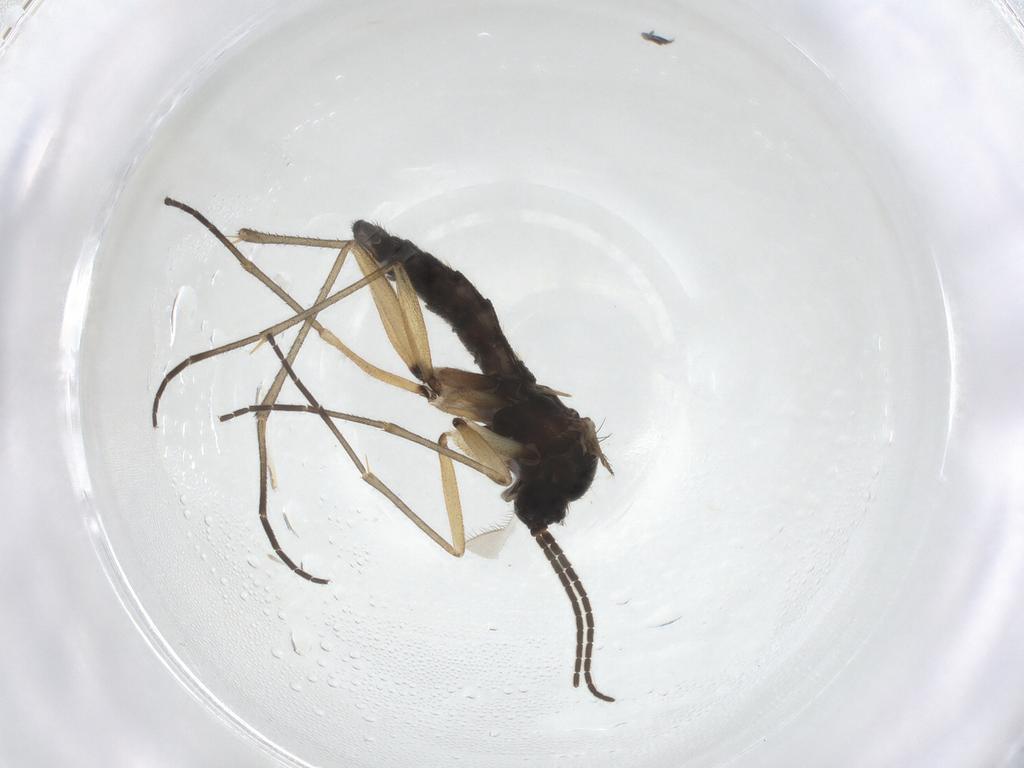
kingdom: Animalia
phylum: Arthropoda
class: Insecta
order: Diptera
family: Sciaridae
